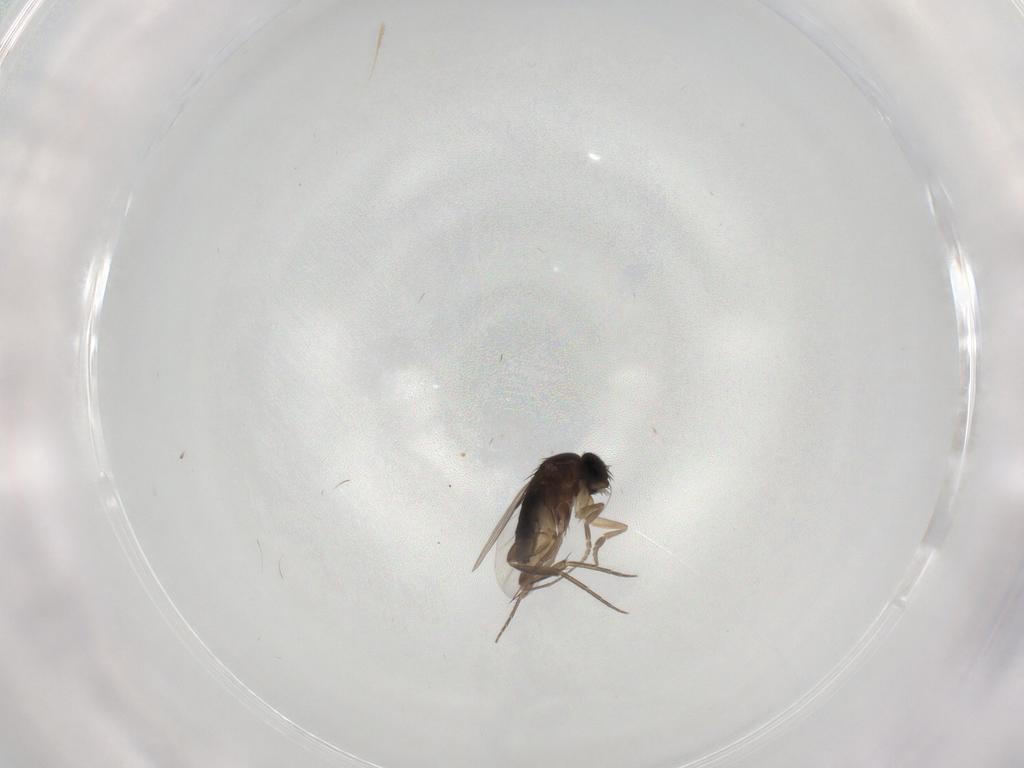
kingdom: Animalia
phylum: Arthropoda
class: Insecta
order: Diptera
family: Phoridae
